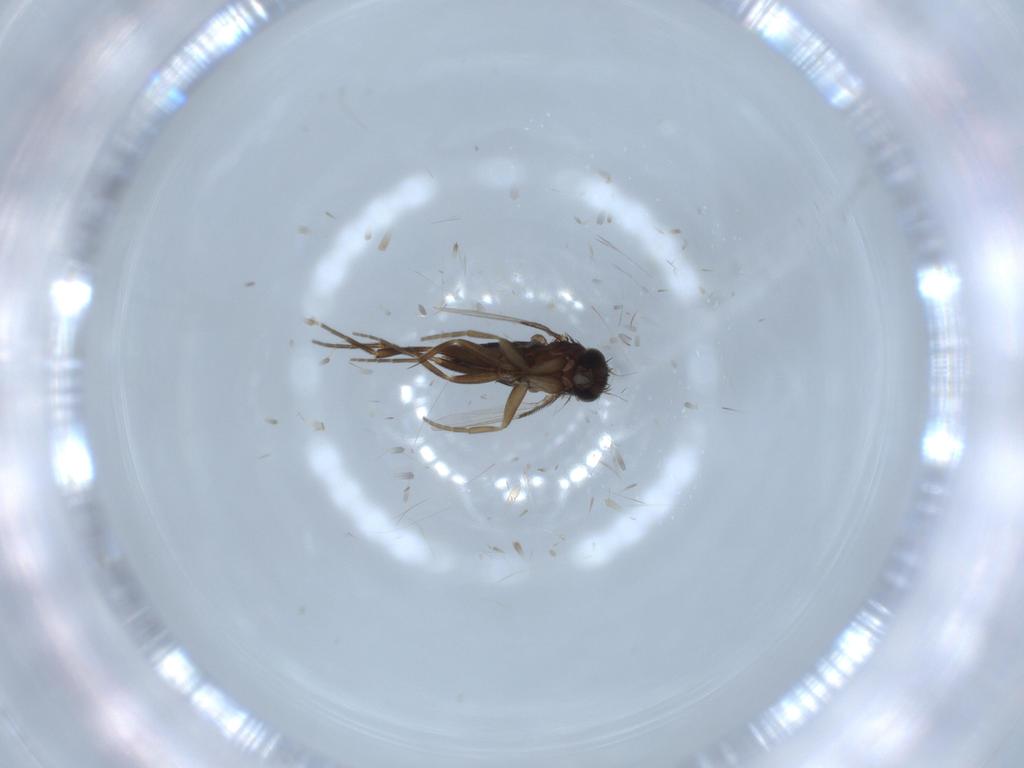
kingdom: Animalia
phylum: Arthropoda
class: Insecta
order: Diptera
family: Phoridae
